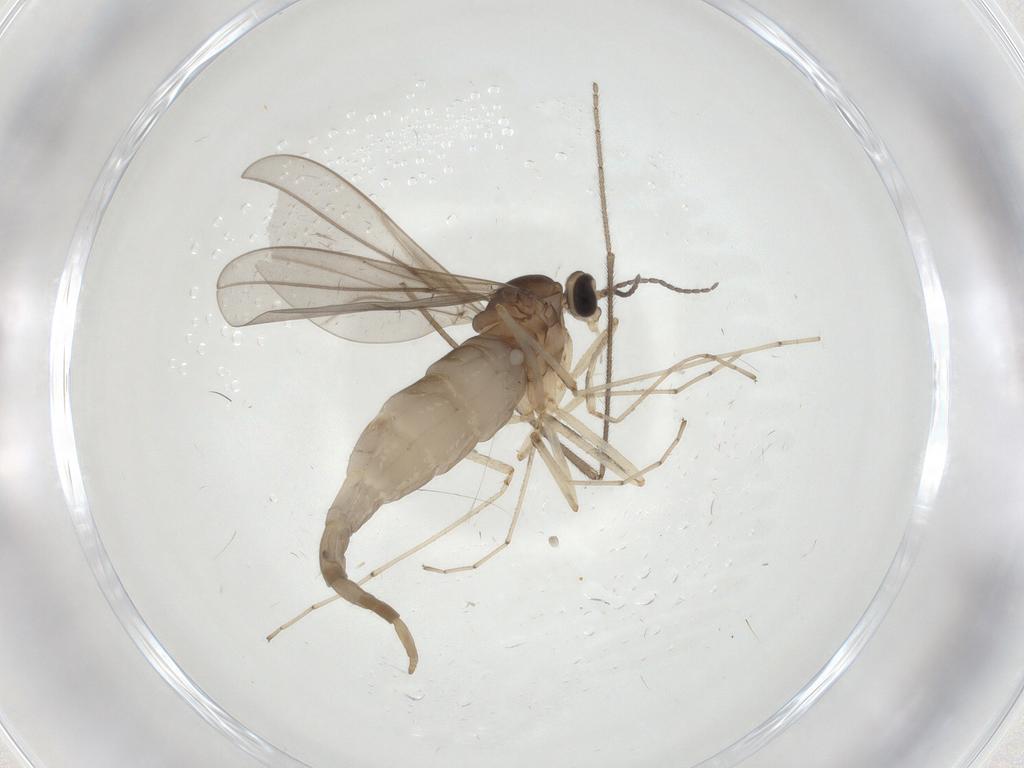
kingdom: Animalia
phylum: Arthropoda
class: Insecta
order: Diptera
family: Cecidomyiidae
